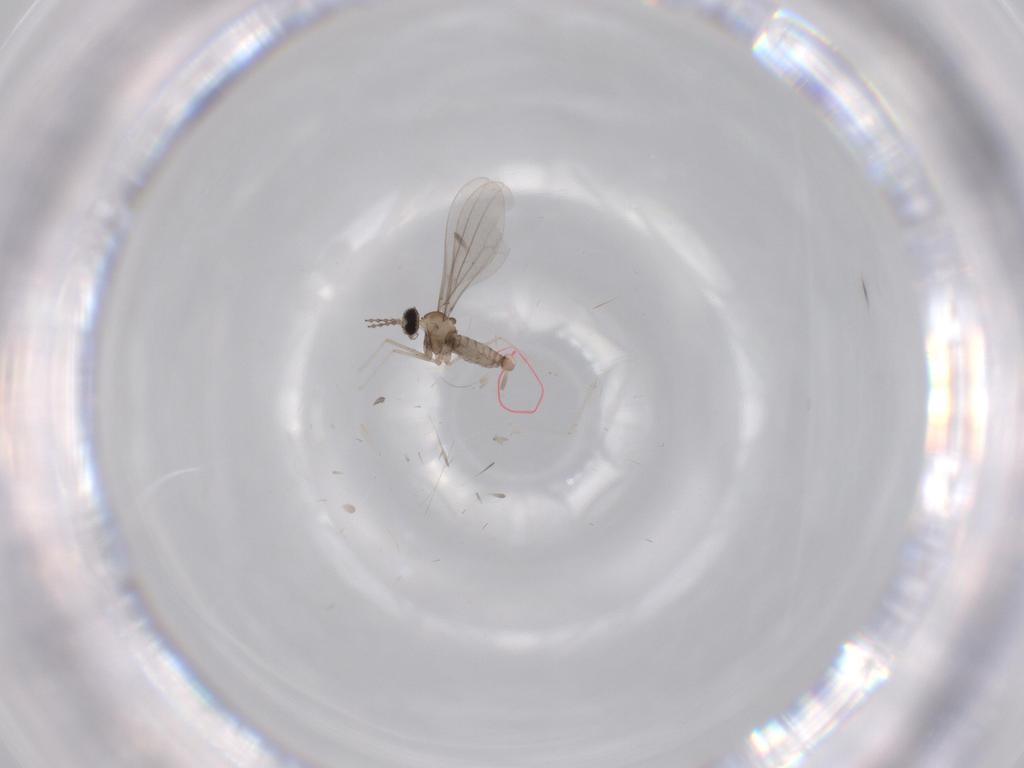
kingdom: Animalia
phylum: Arthropoda
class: Insecta
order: Diptera
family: Cecidomyiidae
